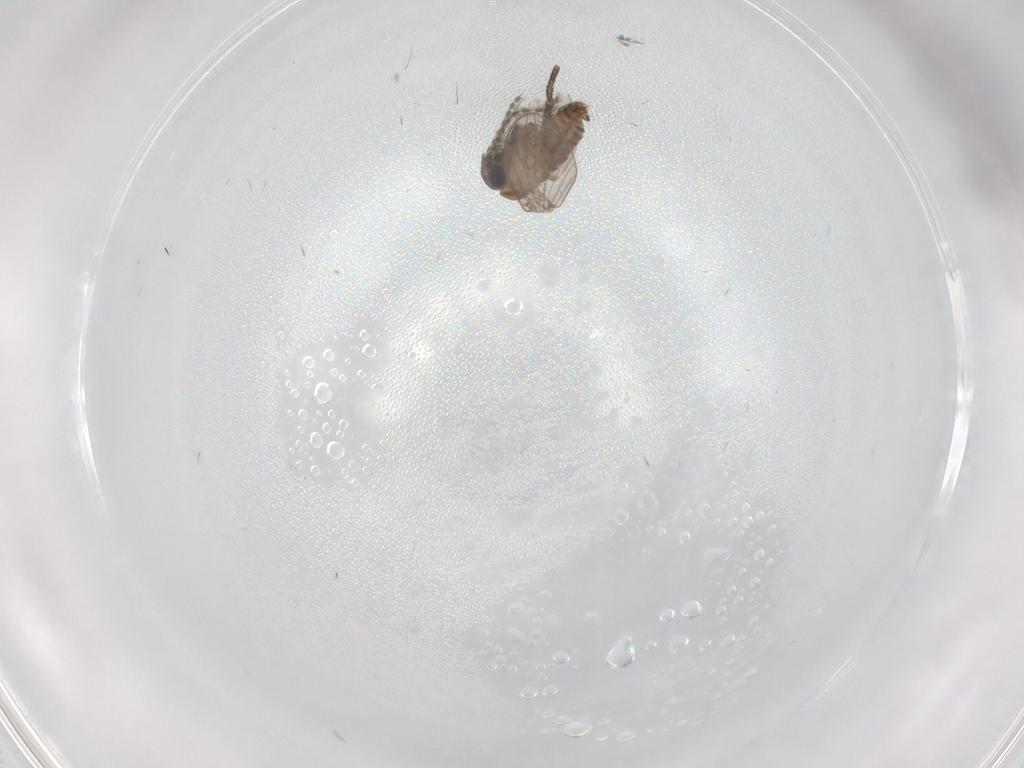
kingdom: Animalia
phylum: Arthropoda
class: Insecta
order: Diptera
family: Psychodidae
